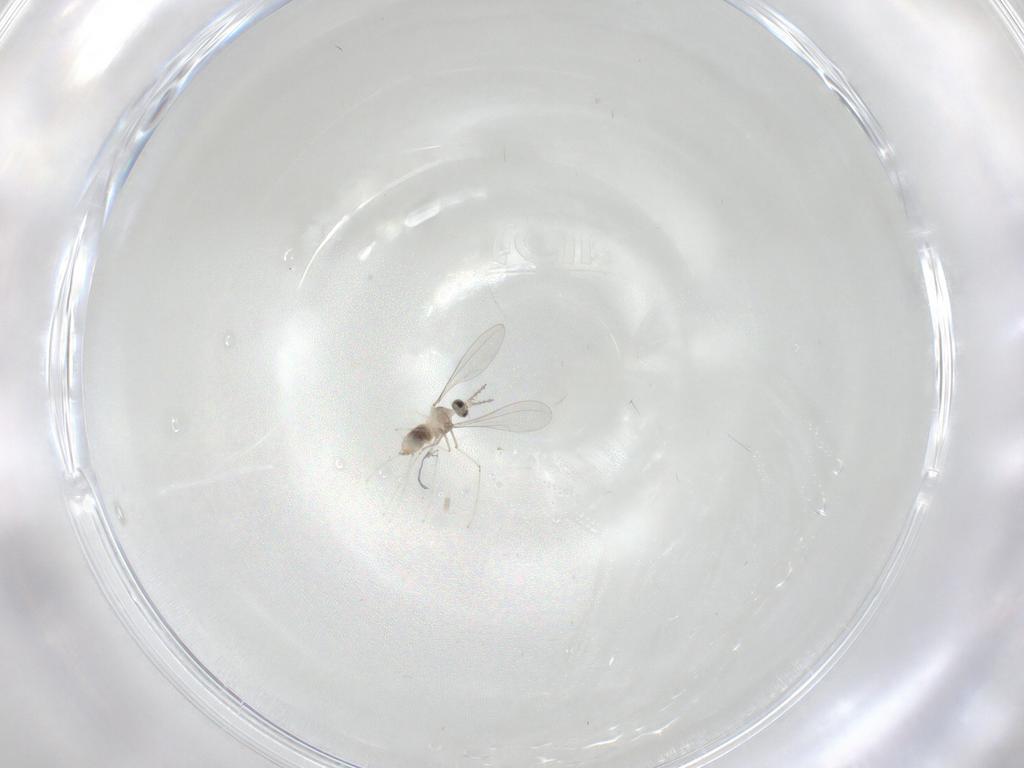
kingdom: Animalia
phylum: Arthropoda
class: Insecta
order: Diptera
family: Cecidomyiidae
